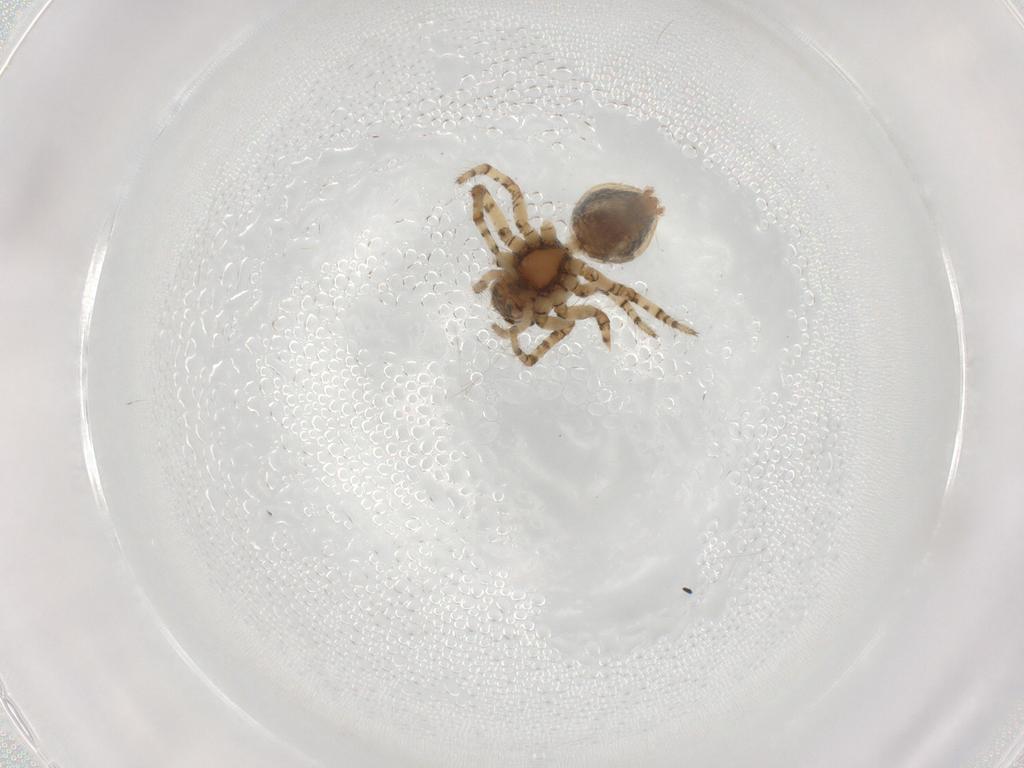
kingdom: Animalia
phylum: Arthropoda
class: Arachnida
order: Araneae
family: Oxyopidae
